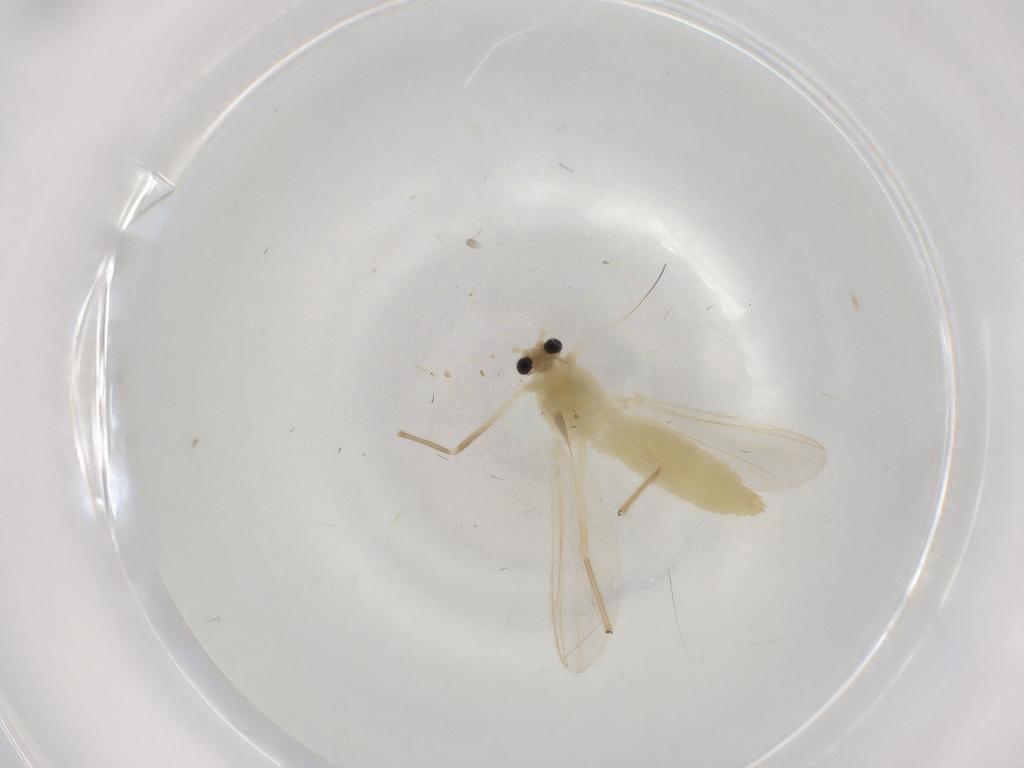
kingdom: Animalia
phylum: Arthropoda
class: Insecta
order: Diptera
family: Chironomidae
